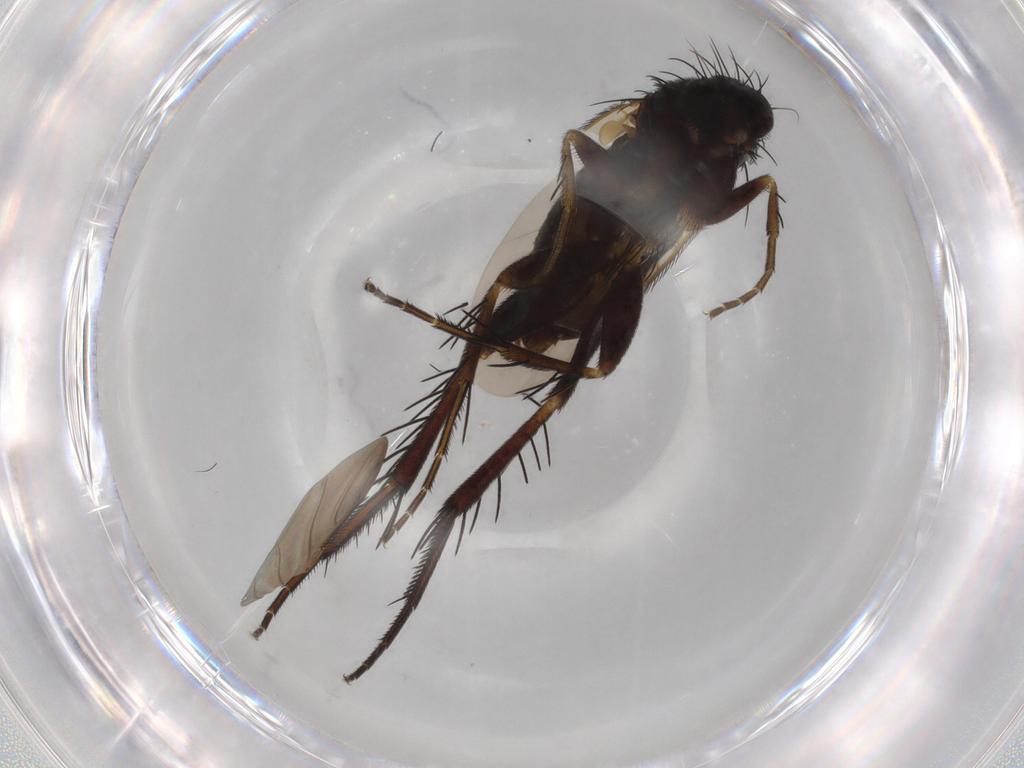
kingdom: Animalia
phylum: Arthropoda
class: Insecta
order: Diptera
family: Phoridae
